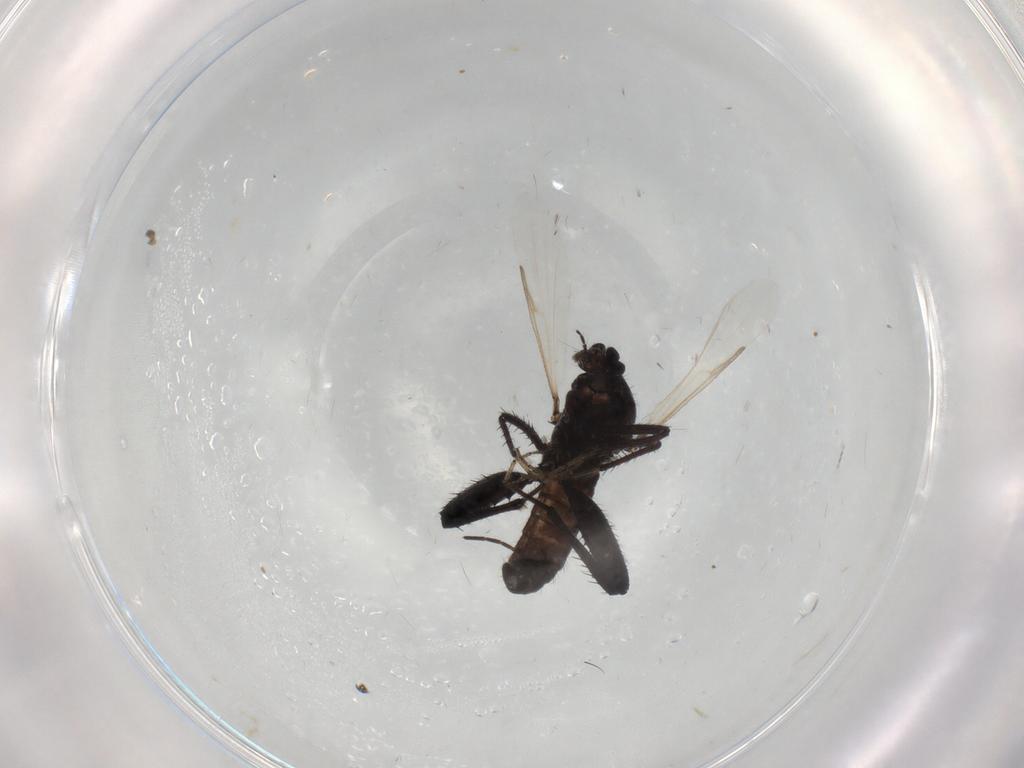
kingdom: Animalia
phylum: Arthropoda
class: Insecta
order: Diptera
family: Ceratopogonidae
